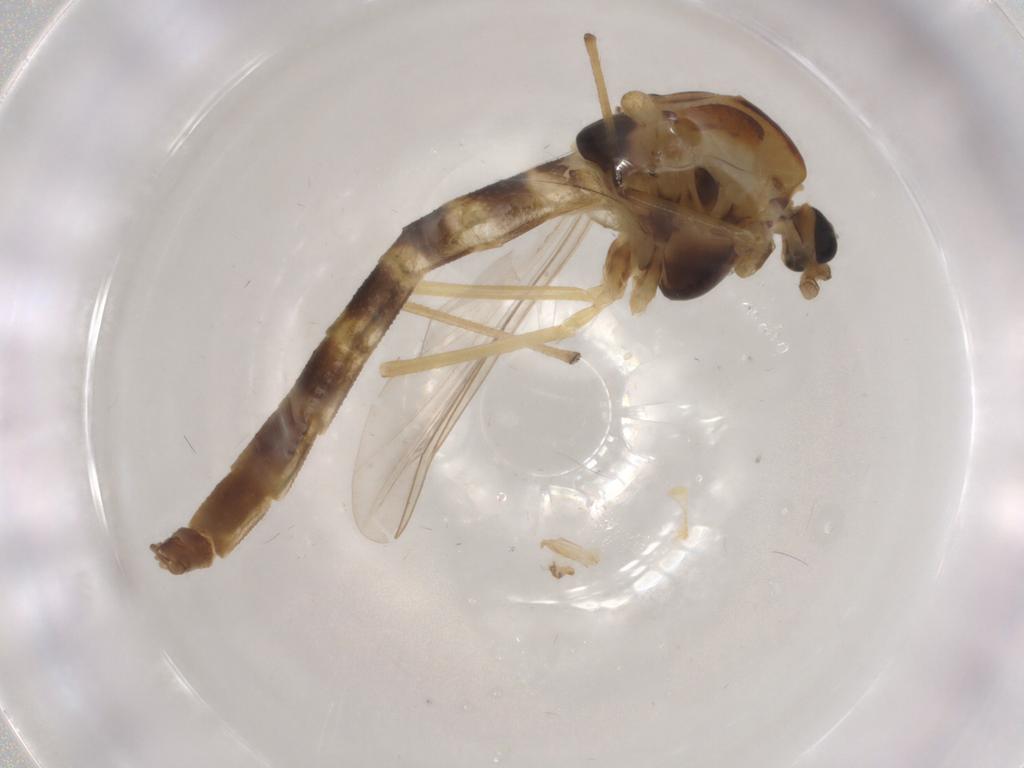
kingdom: Animalia
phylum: Arthropoda
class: Insecta
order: Diptera
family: Chironomidae
